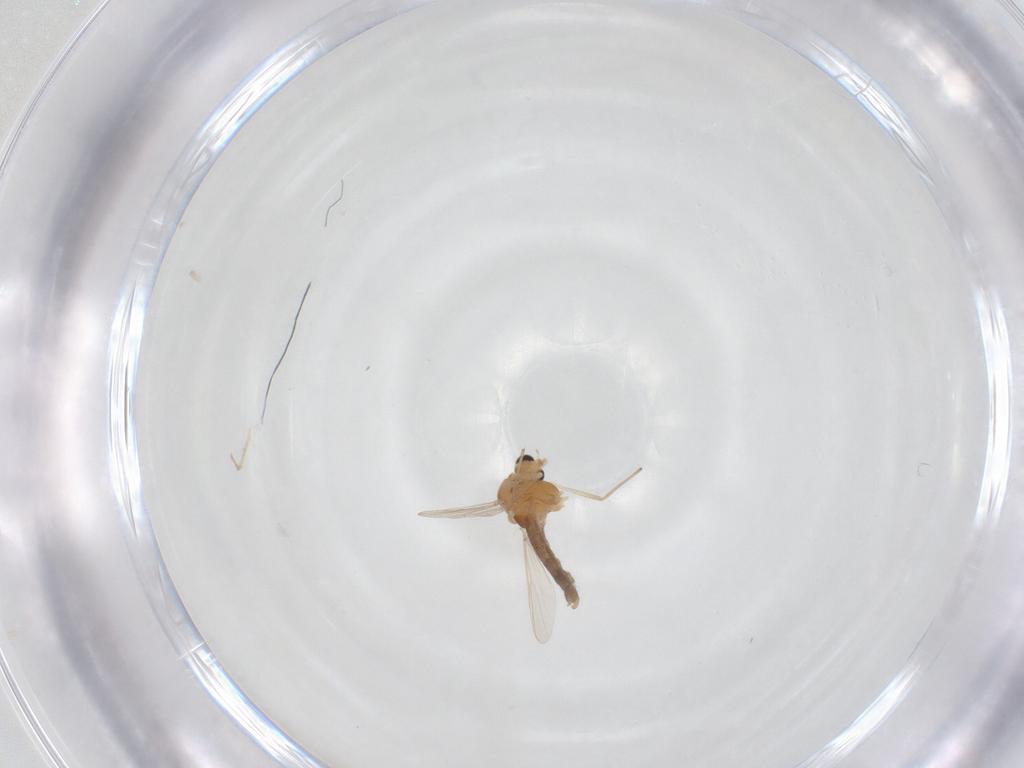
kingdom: Animalia
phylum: Arthropoda
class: Insecta
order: Diptera
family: Chironomidae
